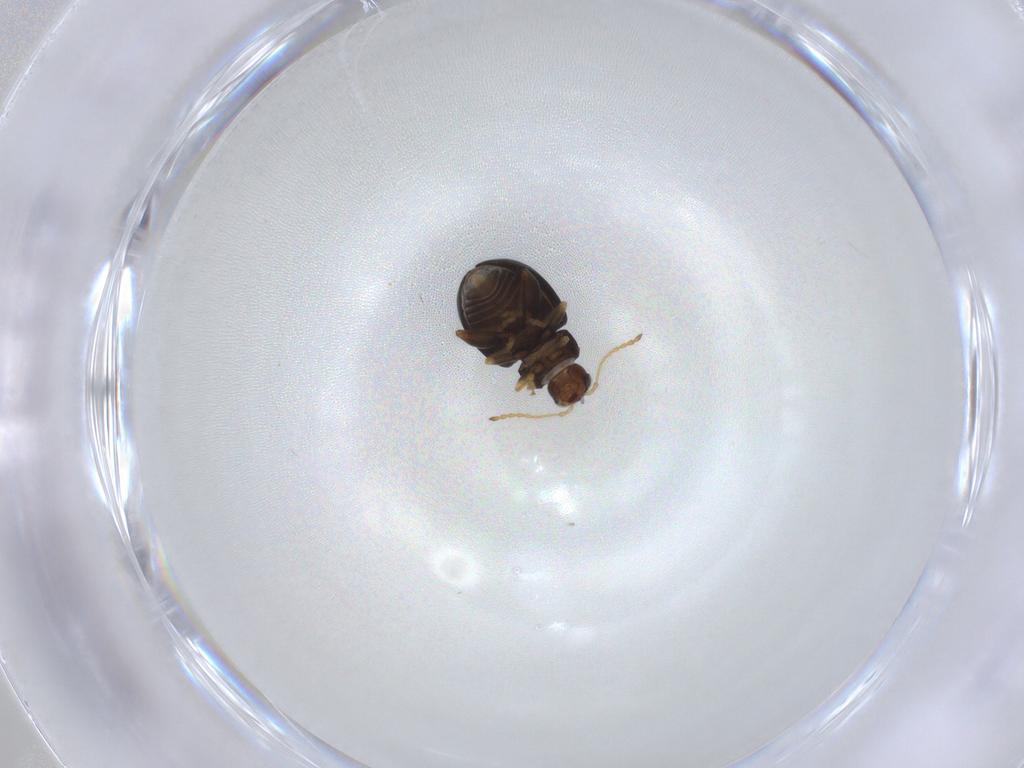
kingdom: Animalia
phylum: Arthropoda
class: Insecta
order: Coleoptera
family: Chrysomelidae
